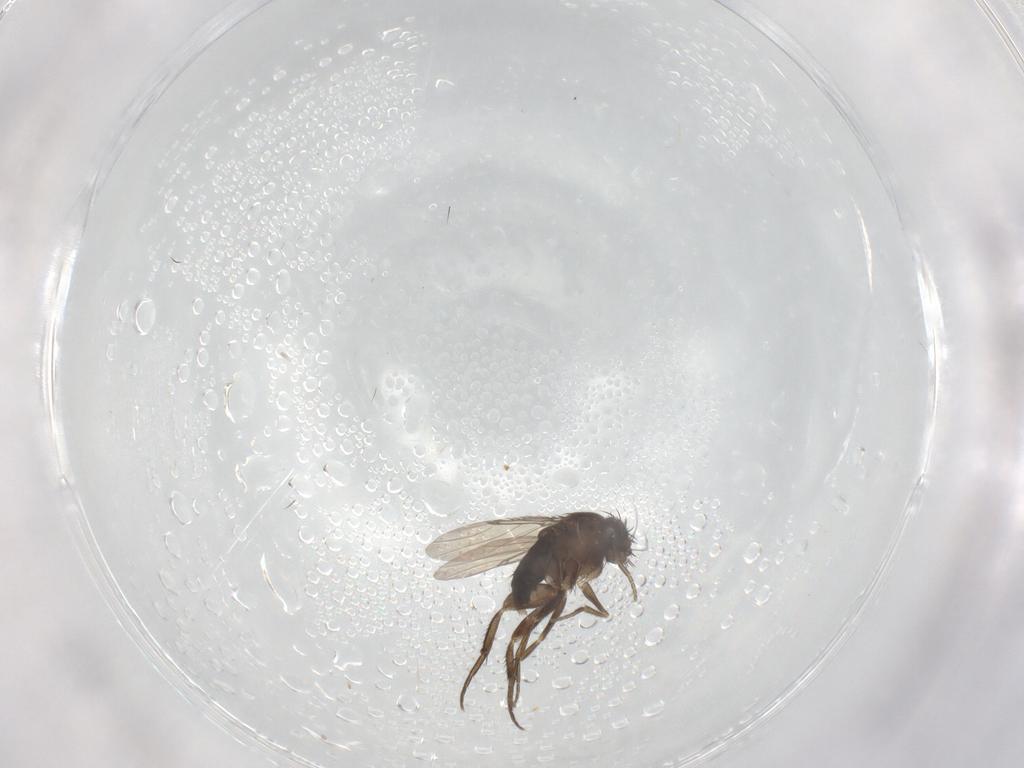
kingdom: Animalia
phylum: Arthropoda
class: Insecta
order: Diptera
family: Phoridae
